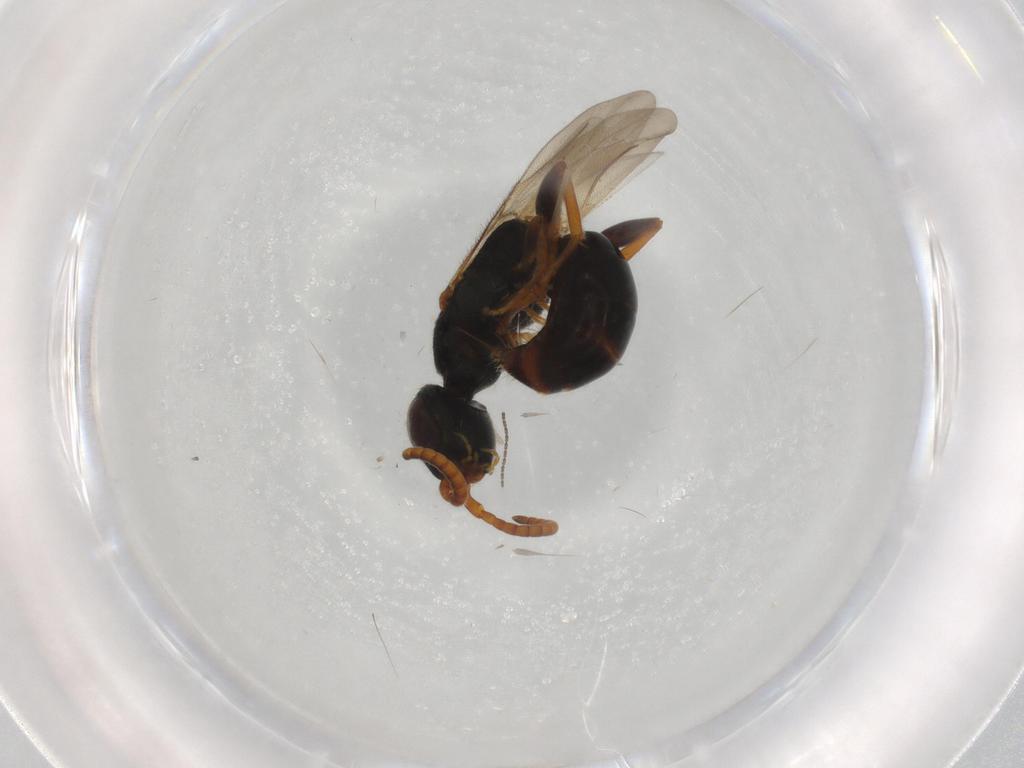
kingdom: Animalia
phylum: Arthropoda
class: Insecta
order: Hymenoptera
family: Bethylidae
